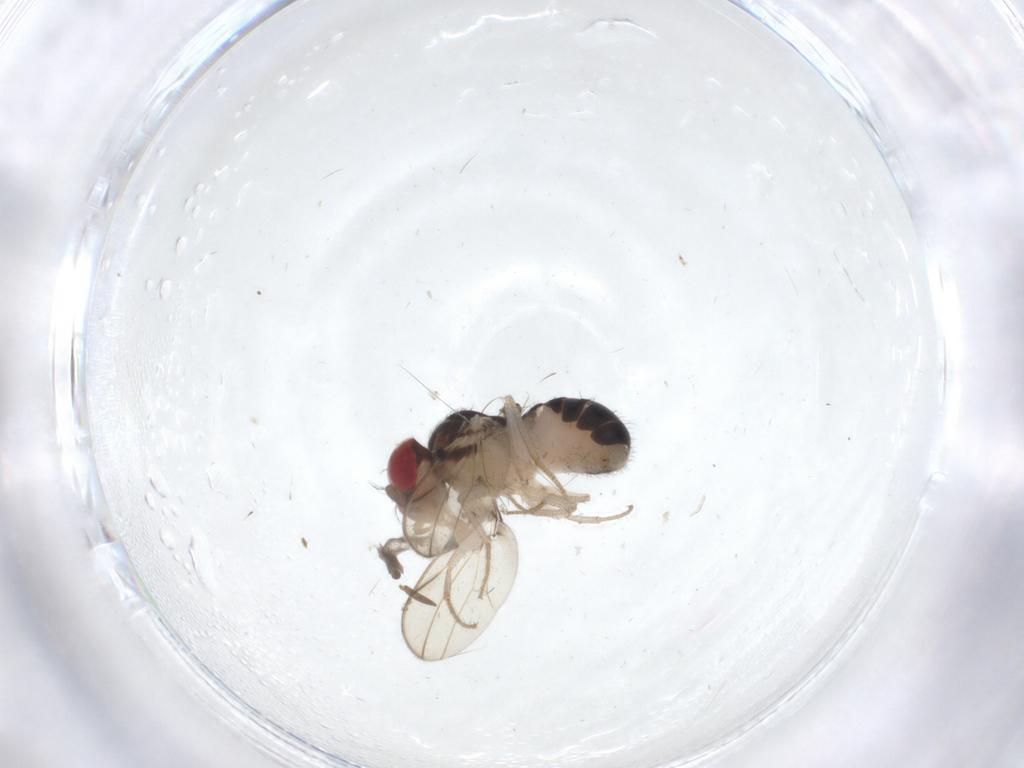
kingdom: Animalia
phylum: Arthropoda
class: Insecta
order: Diptera
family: Drosophilidae
